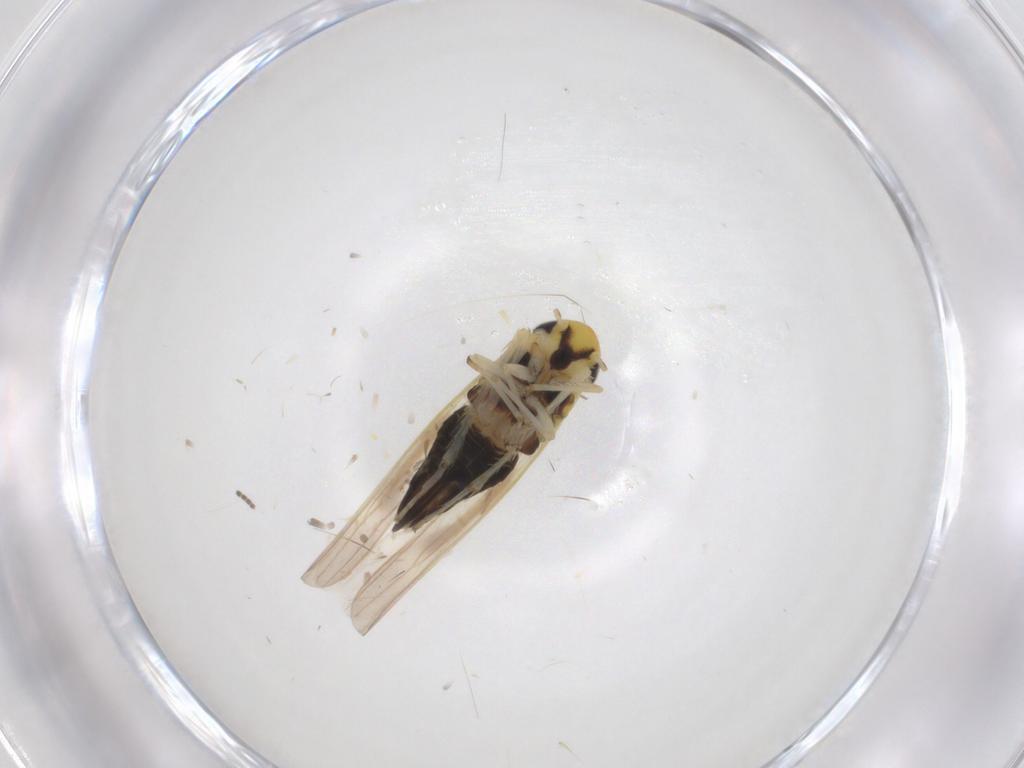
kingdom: Animalia
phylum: Arthropoda
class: Insecta
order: Hemiptera
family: Cicadellidae
